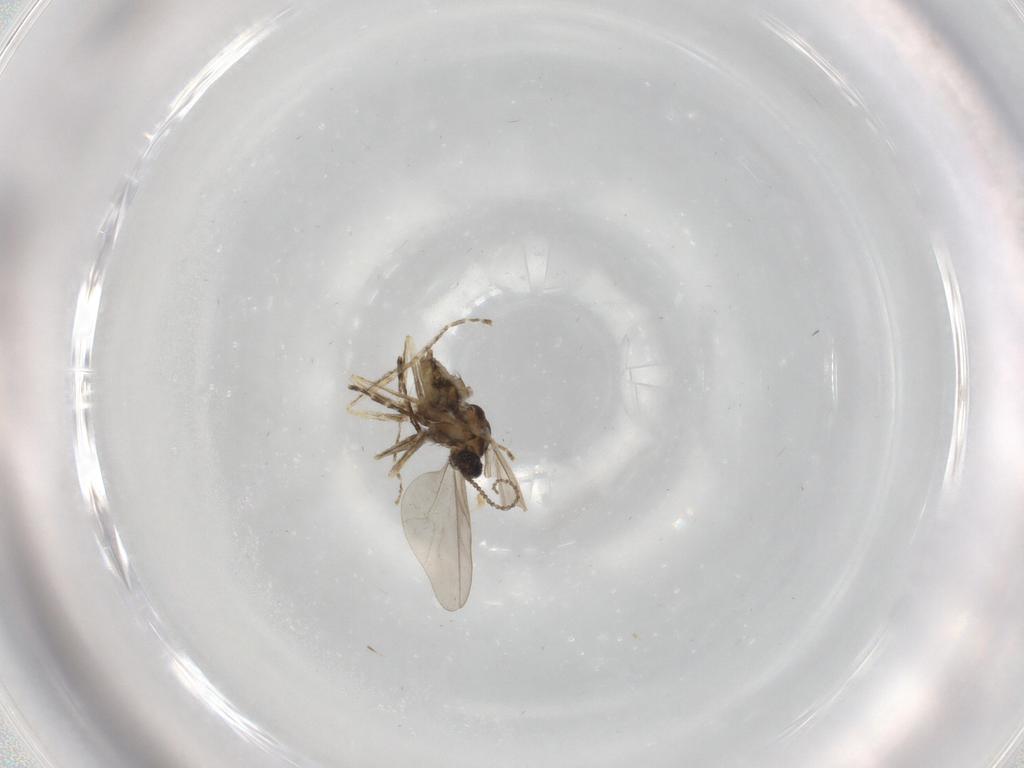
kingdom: Animalia
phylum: Arthropoda
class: Insecta
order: Diptera
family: Cecidomyiidae
